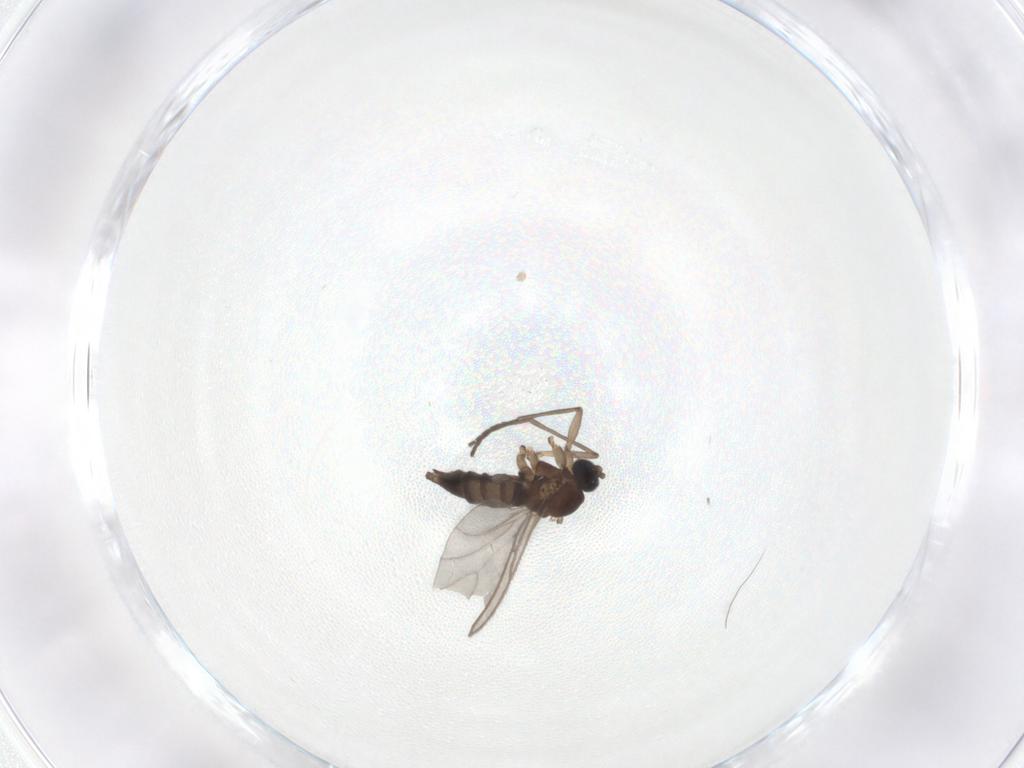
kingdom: Animalia
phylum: Arthropoda
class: Insecta
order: Diptera
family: Sciaridae
